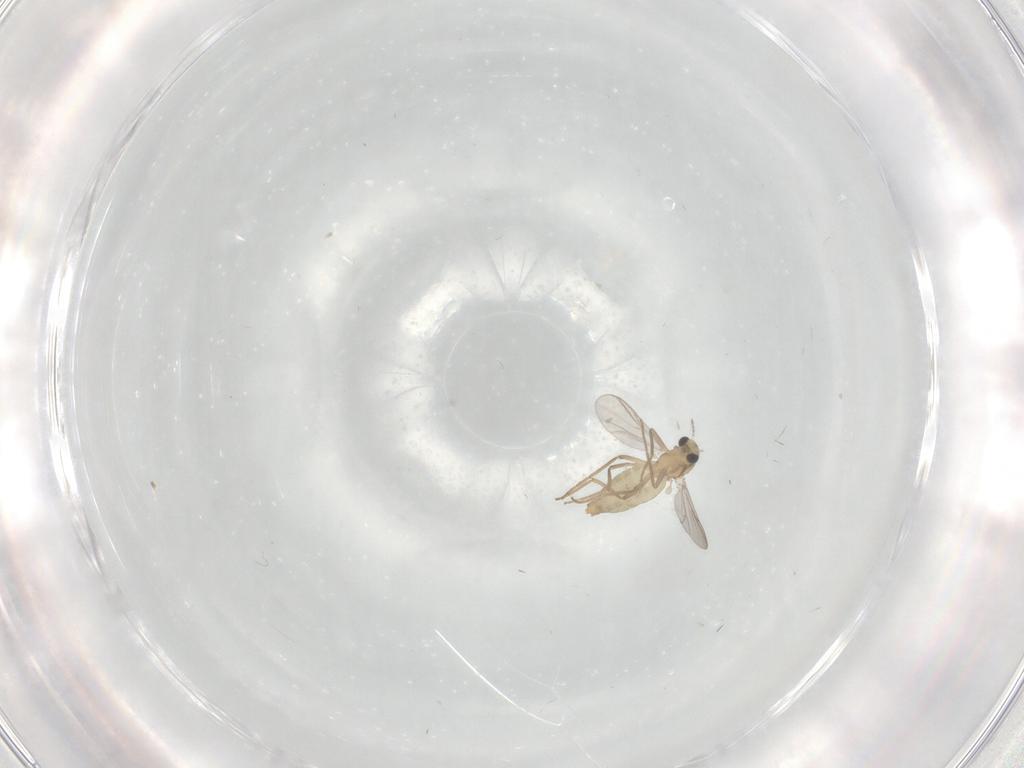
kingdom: Animalia
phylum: Arthropoda
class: Insecta
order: Diptera
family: Chironomidae
